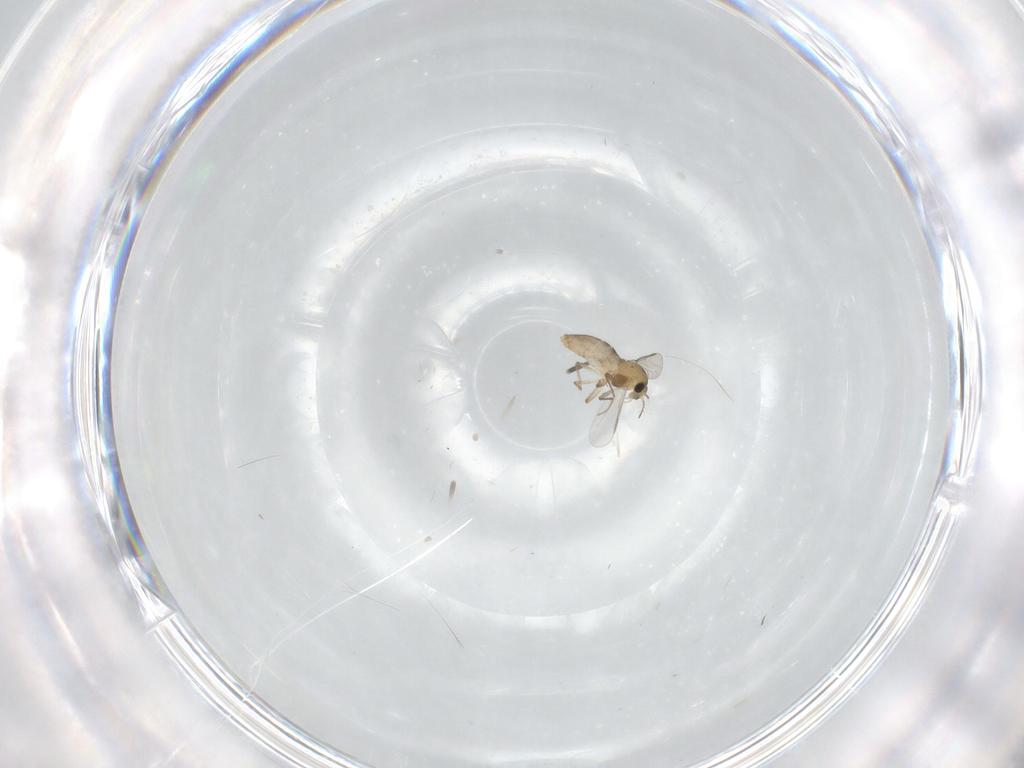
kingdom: Animalia
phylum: Arthropoda
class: Insecta
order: Diptera
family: Chironomidae
